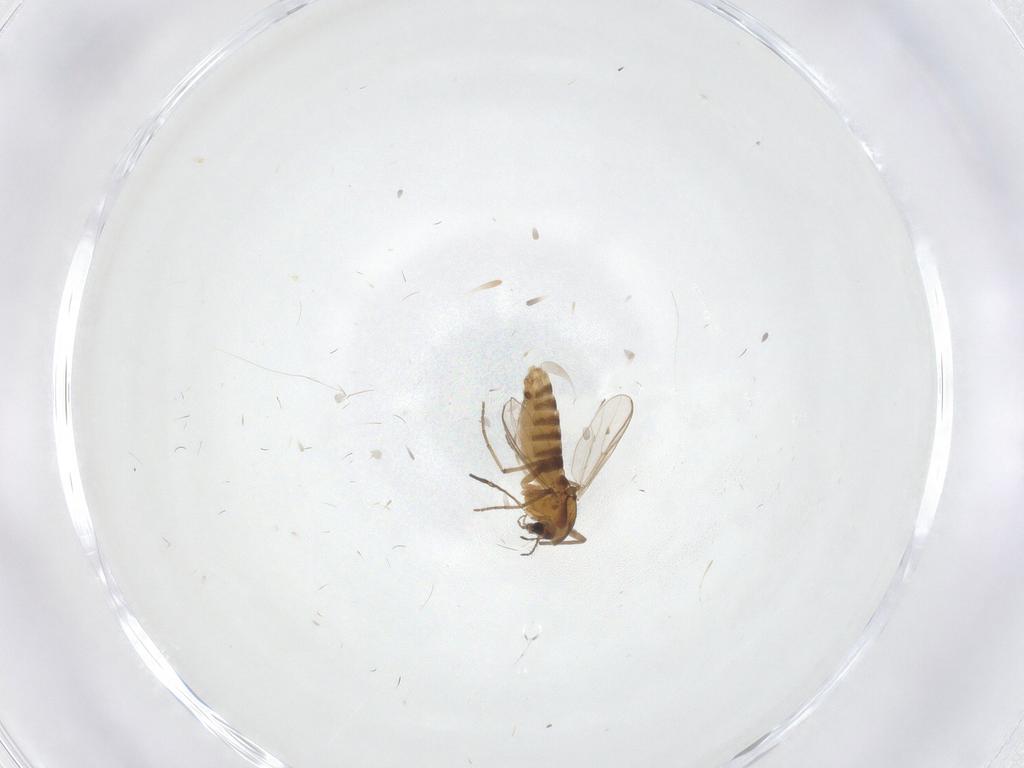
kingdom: Animalia
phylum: Arthropoda
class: Insecta
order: Diptera
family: Chironomidae
